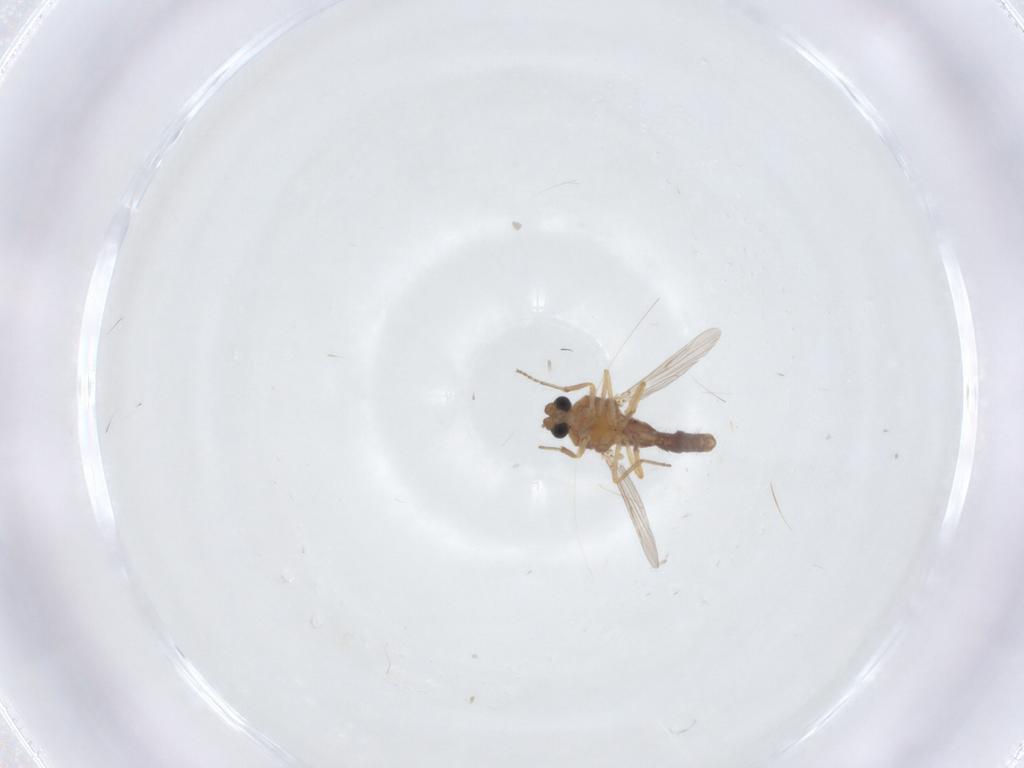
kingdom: Animalia
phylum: Arthropoda
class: Insecta
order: Diptera
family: Ceratopogonidae
